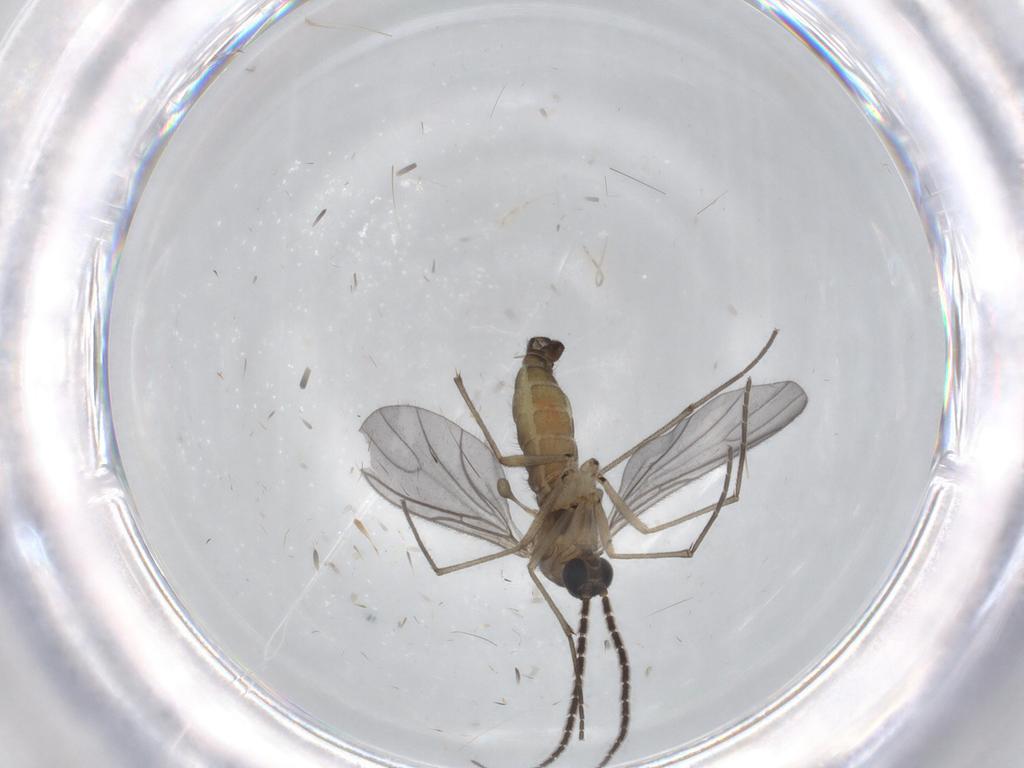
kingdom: Animalia
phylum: Arthropoda
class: Insecta
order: Diptera
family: Milichiidae
